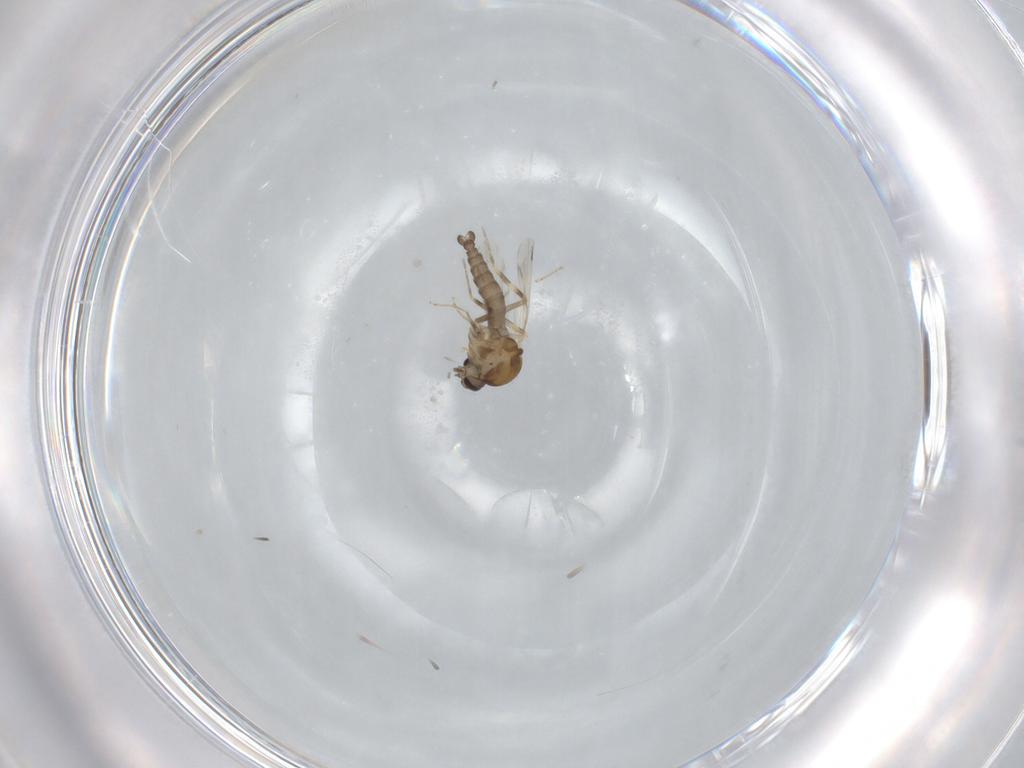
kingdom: Animalia
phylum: Arthropoda
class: Insecta
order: Diptera
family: Ceratopogonidae
